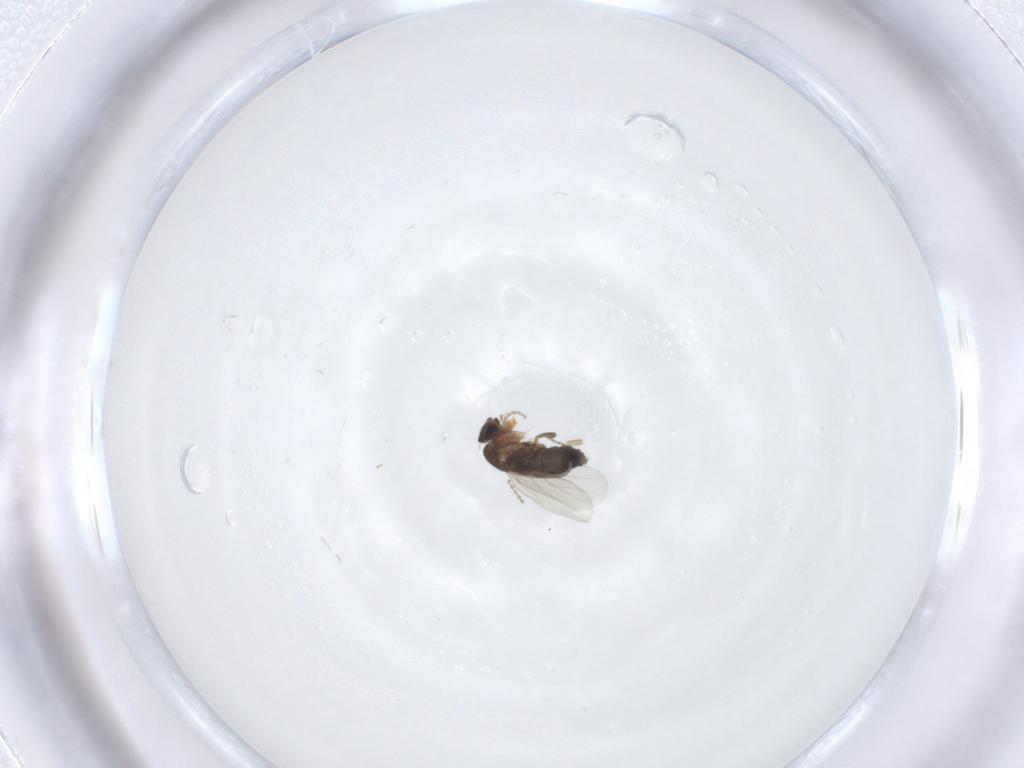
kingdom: Animalia
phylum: Arthropoda
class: Insecta
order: Diptera
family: Phoridae
